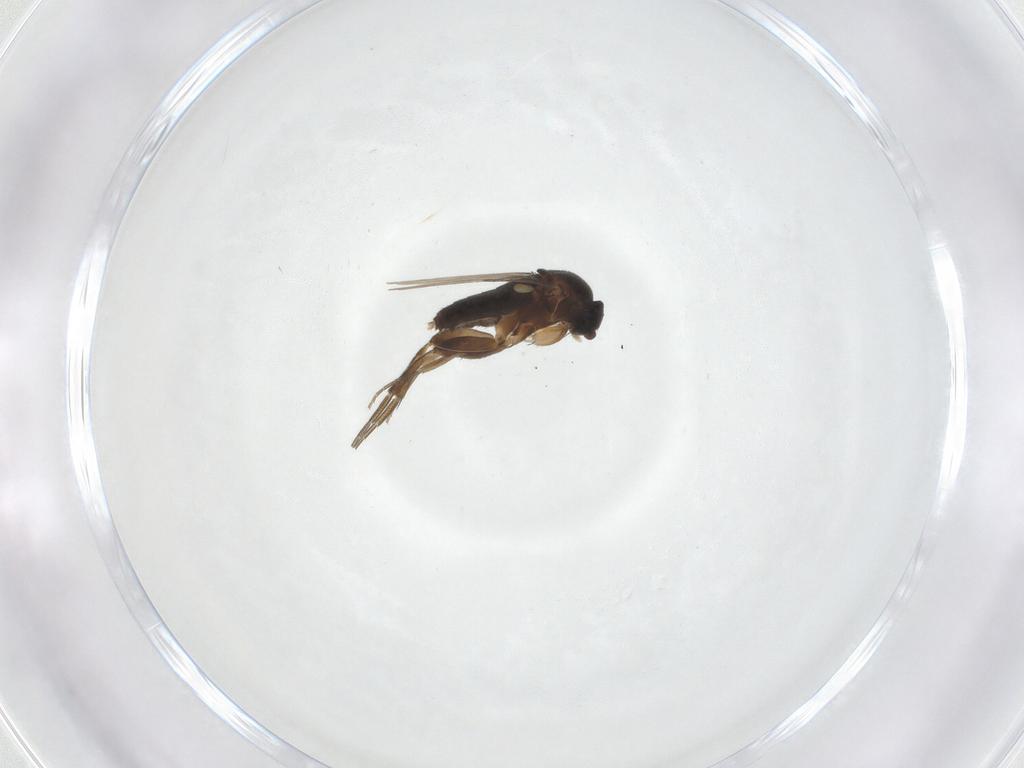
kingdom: Animalia
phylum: Arthropoda
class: Insecta
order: Diptera
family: Phoridae
